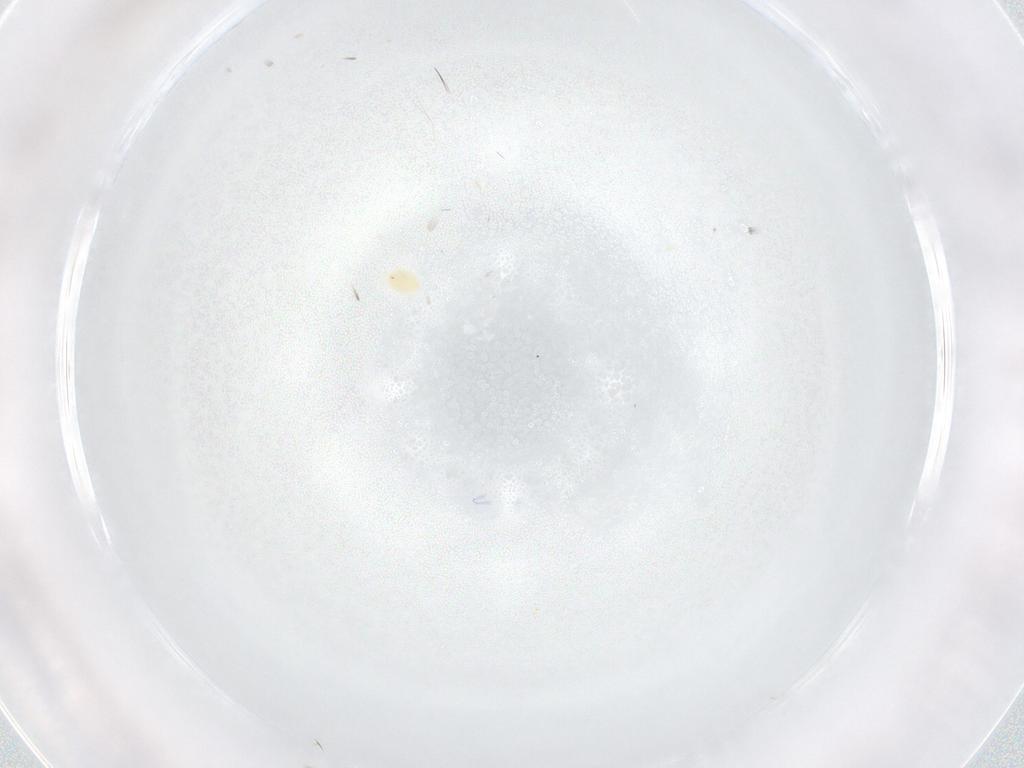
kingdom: Animalia
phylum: Arthropoda
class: Arachnida
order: Trombidiformes
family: Tetranychidae
